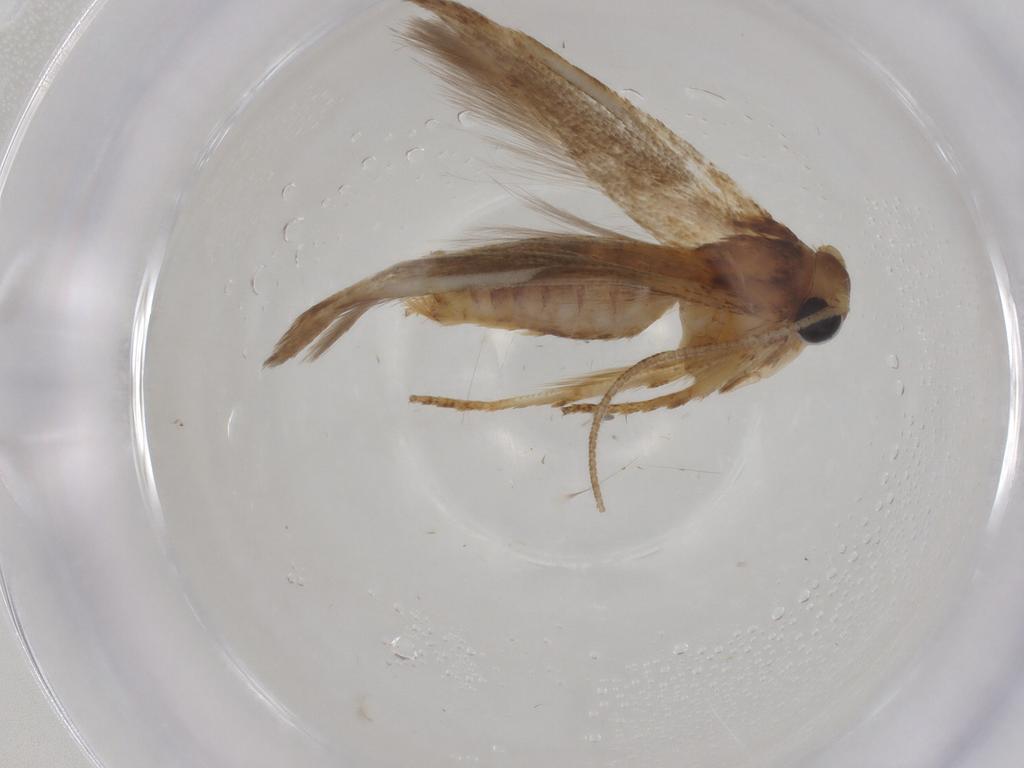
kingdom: Animalia
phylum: Arthropoda
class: Insecta
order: Lepidoptera
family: Blastobasidae
